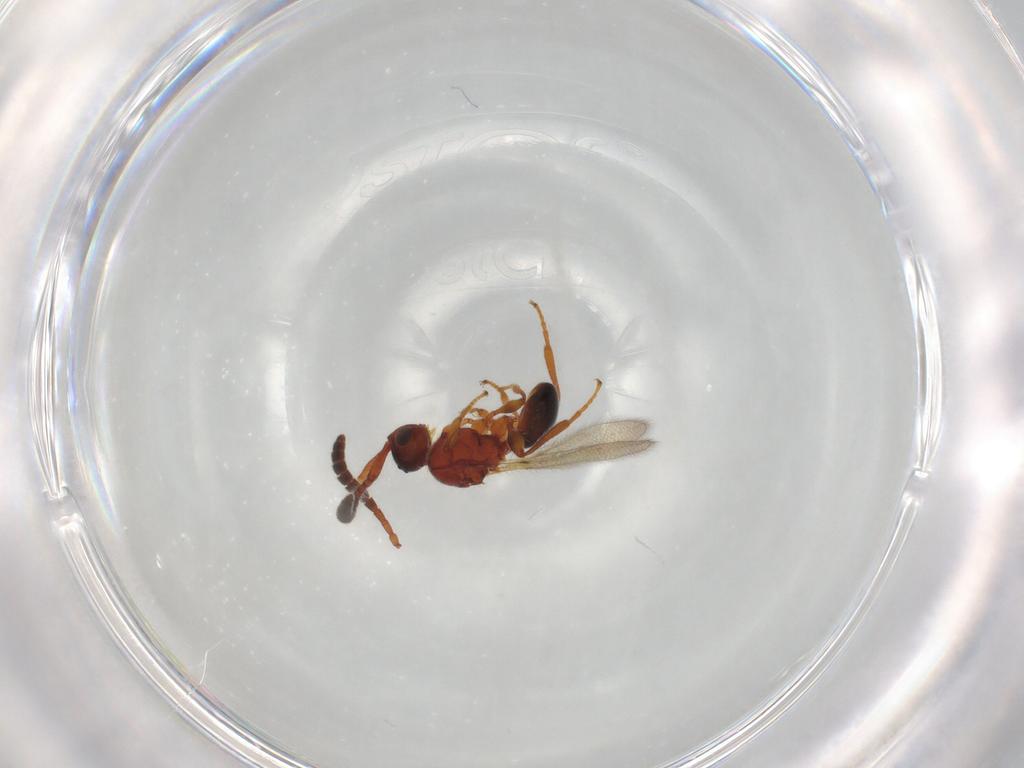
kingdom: Animalia
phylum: Arthropoda
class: Insecta
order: Hymenoptera
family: Diapriidae
